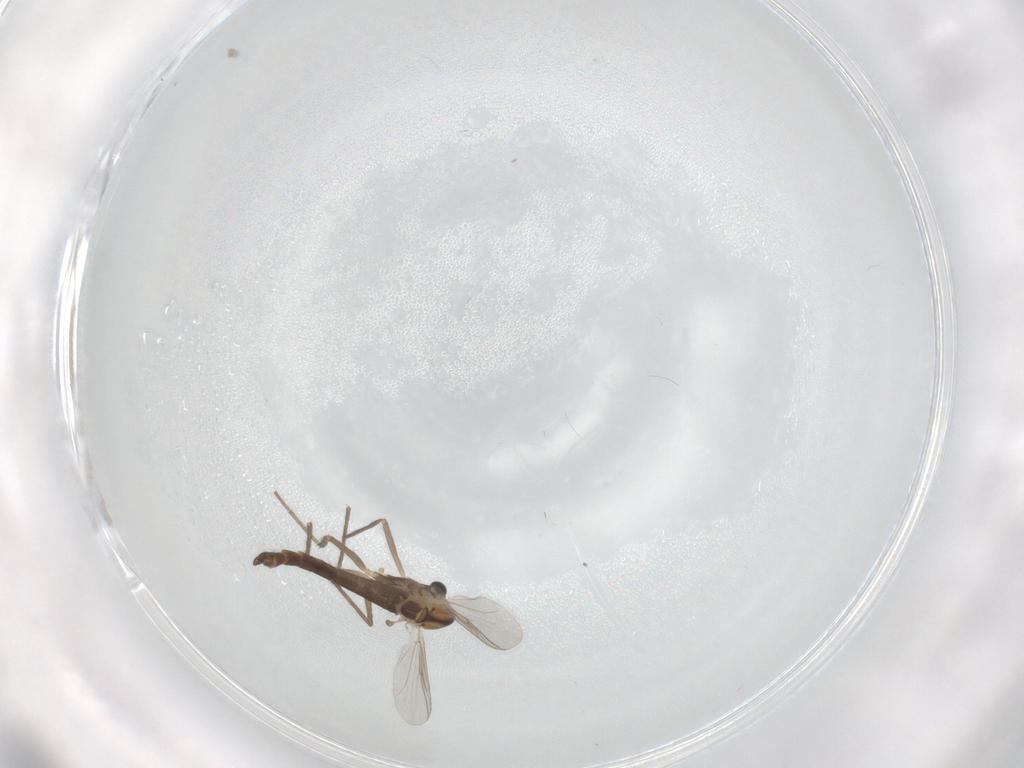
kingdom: Animalia
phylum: Arthropoda
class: Insecta
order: Diptera
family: Chironomidae
